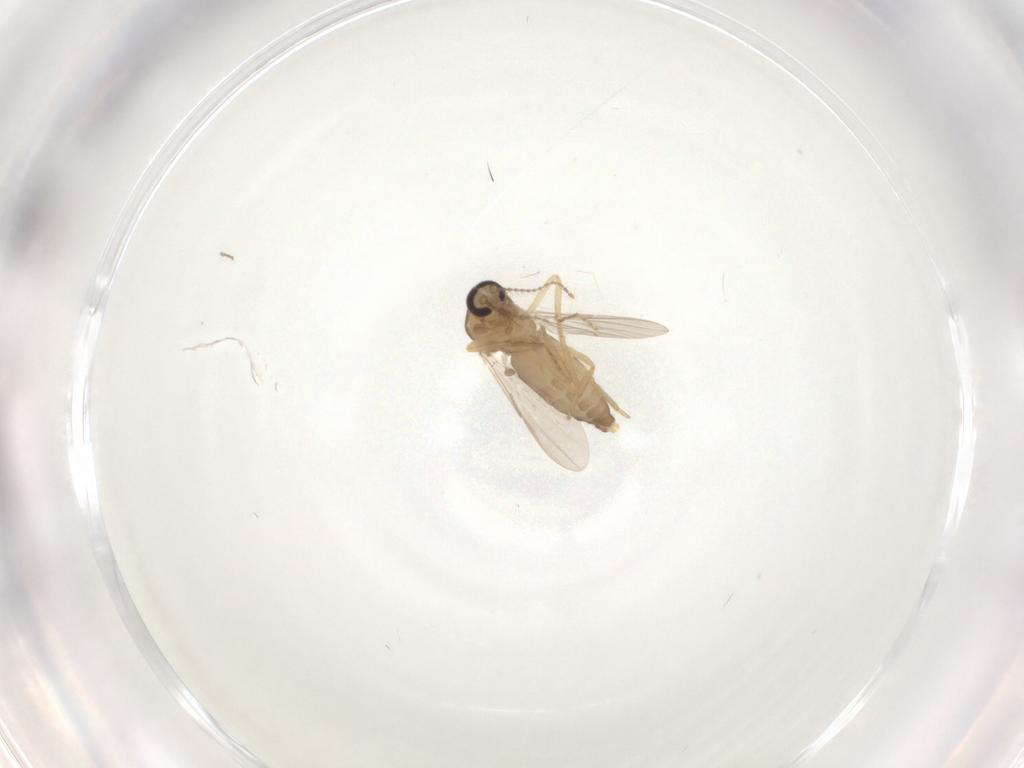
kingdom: Animalia
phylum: Arthropoda
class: Insecta
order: Diptera
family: Ceratopogonidae
